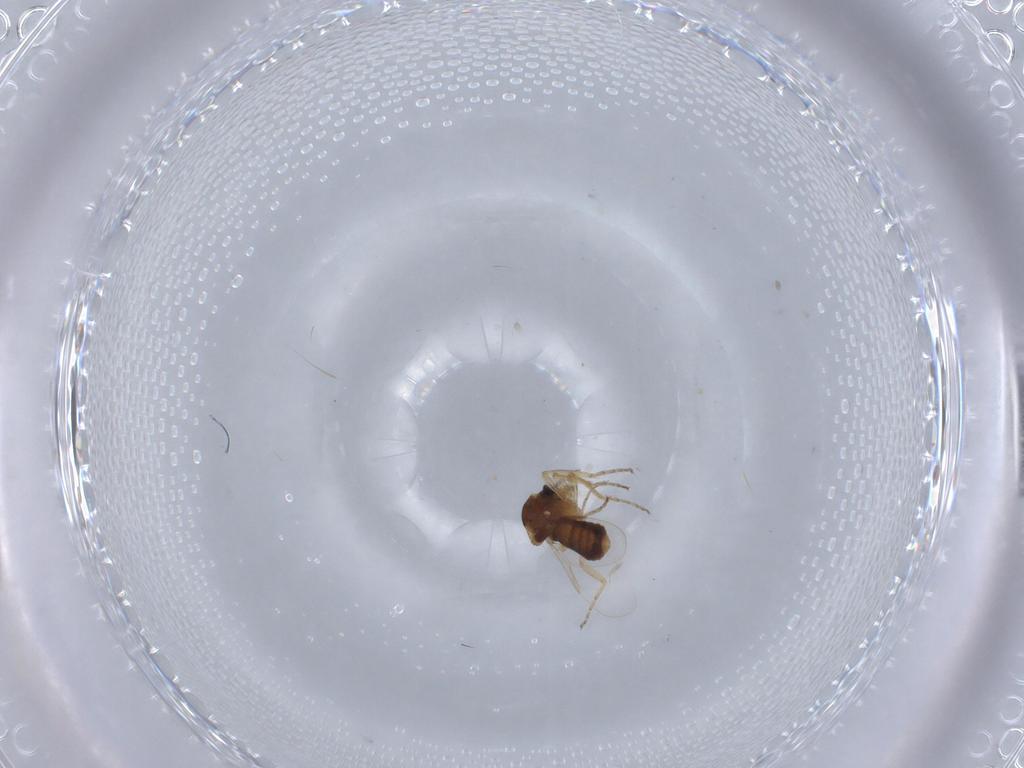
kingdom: Animalia
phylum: Arthropoda
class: Insecta
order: Diptera
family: Ceratopogonidae
